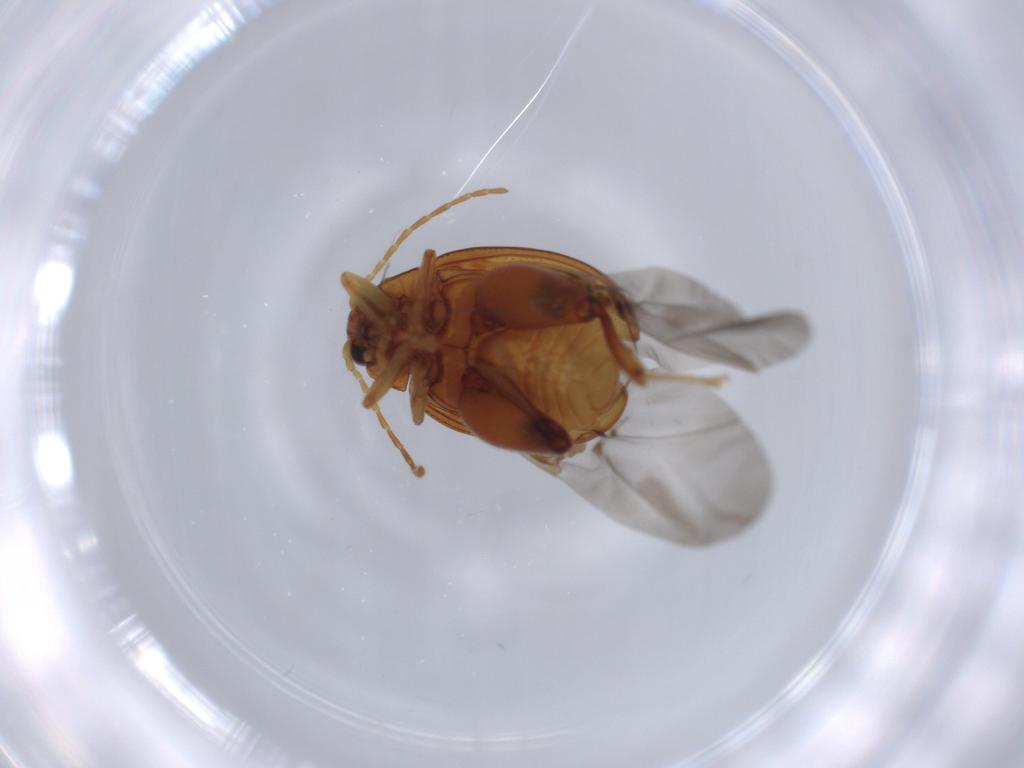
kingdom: Animalia
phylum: Arthropoda
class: Insecta
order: Coleoptera
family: Chrysomelidae
